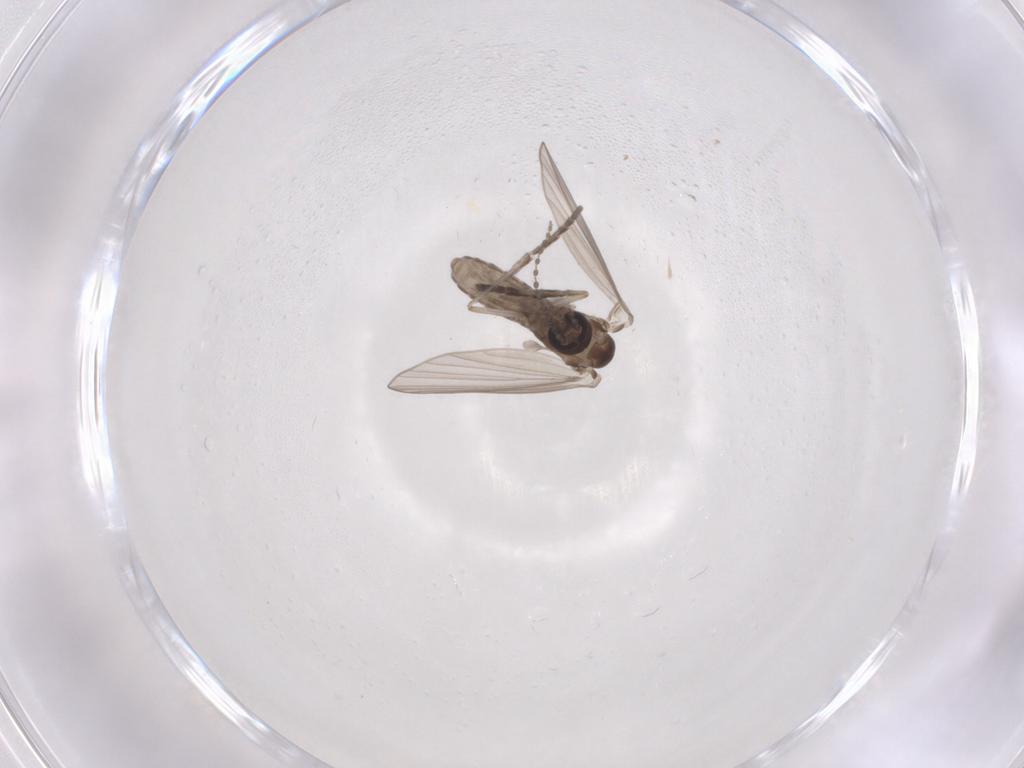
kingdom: Animalia
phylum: Arthropoda
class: Insecta
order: Diptera
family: Psychodidae
